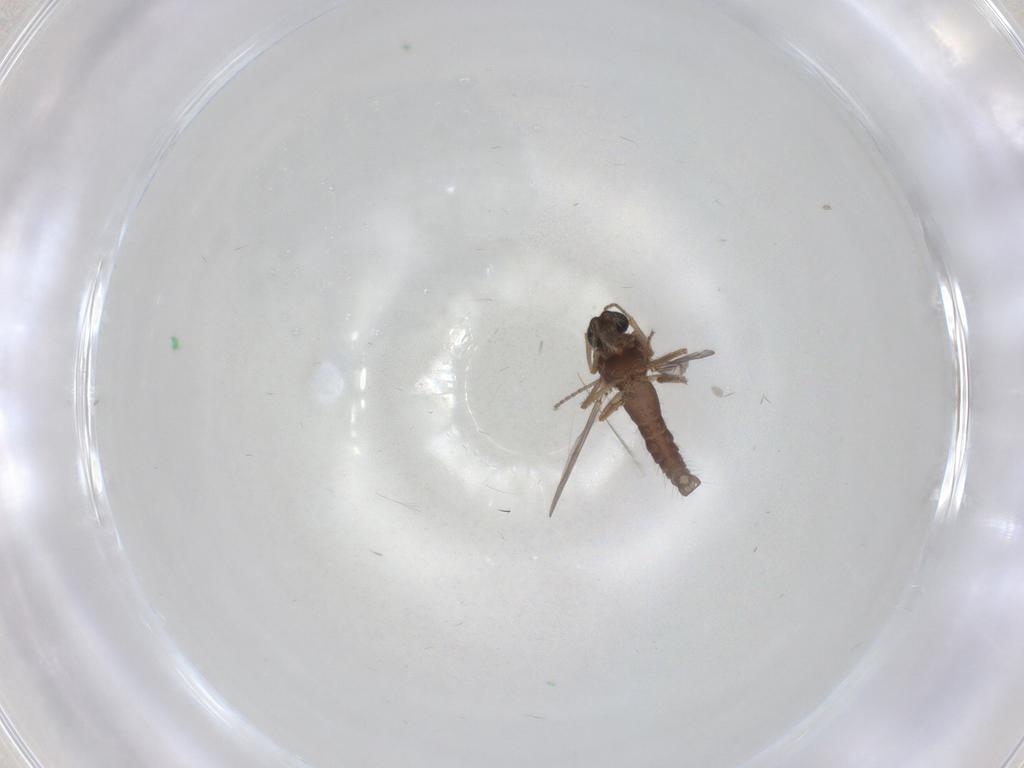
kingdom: Animalia
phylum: Arthropoda
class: Insecta
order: Diptera
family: Ceratopogonidae
